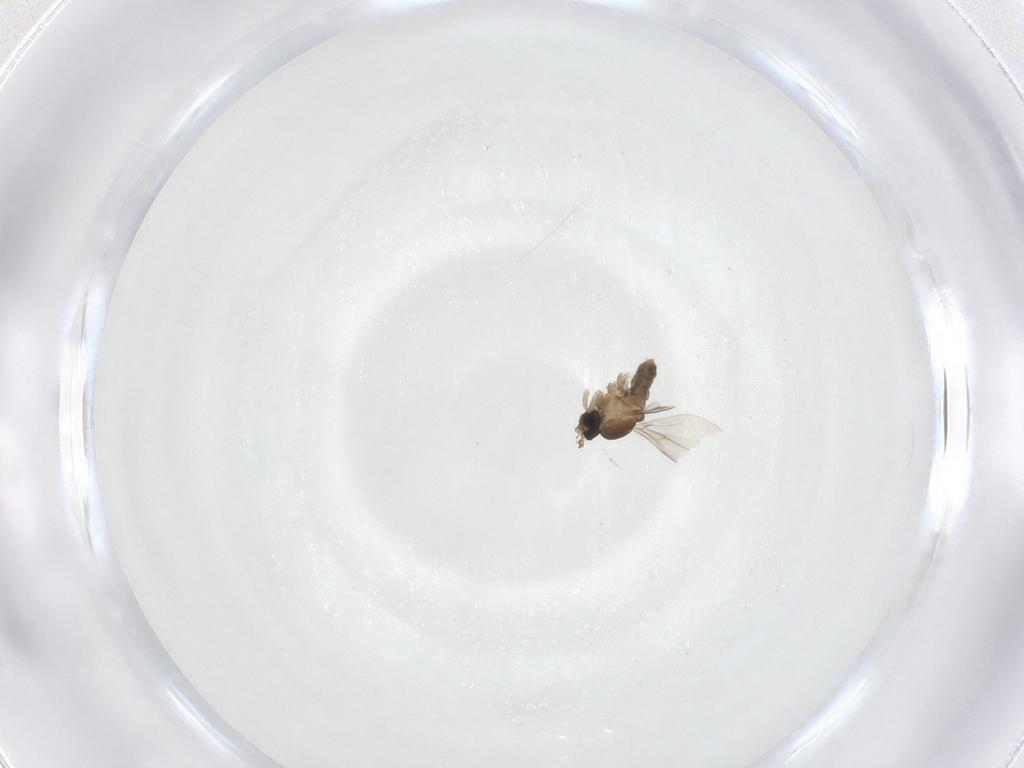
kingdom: Animalia
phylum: Arthropoda
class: Insecta
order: Diptera
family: Cecidomyiidae
